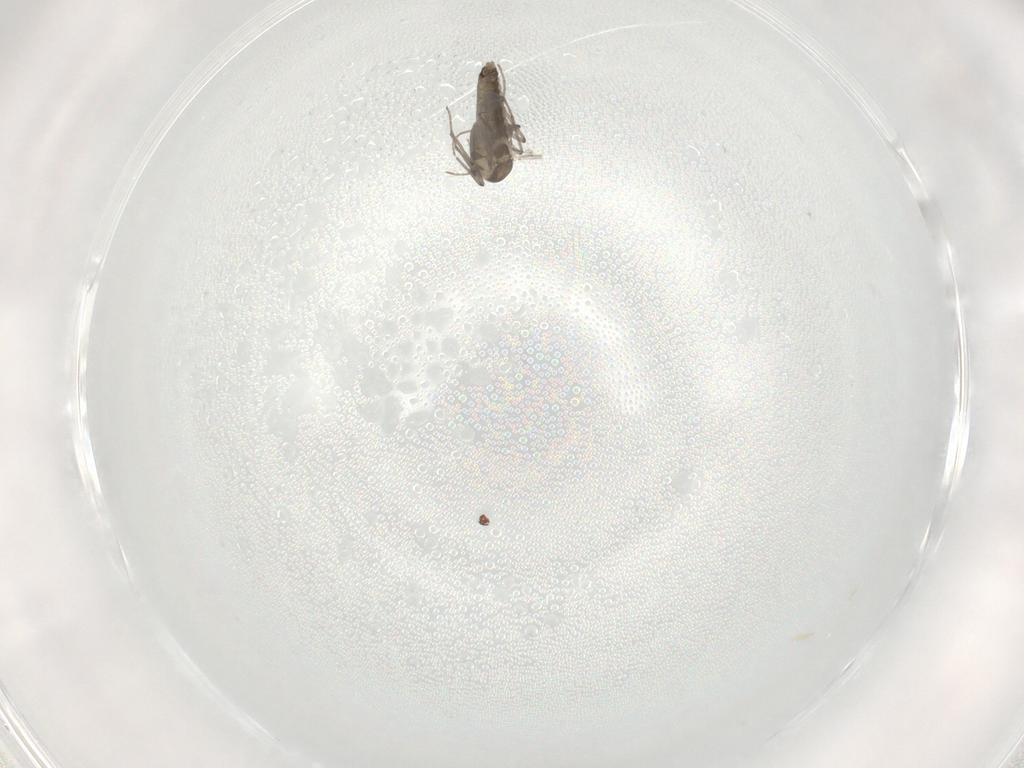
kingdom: Animalia
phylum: Arthropoda
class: Insecta
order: Diptera
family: Chironomidae
